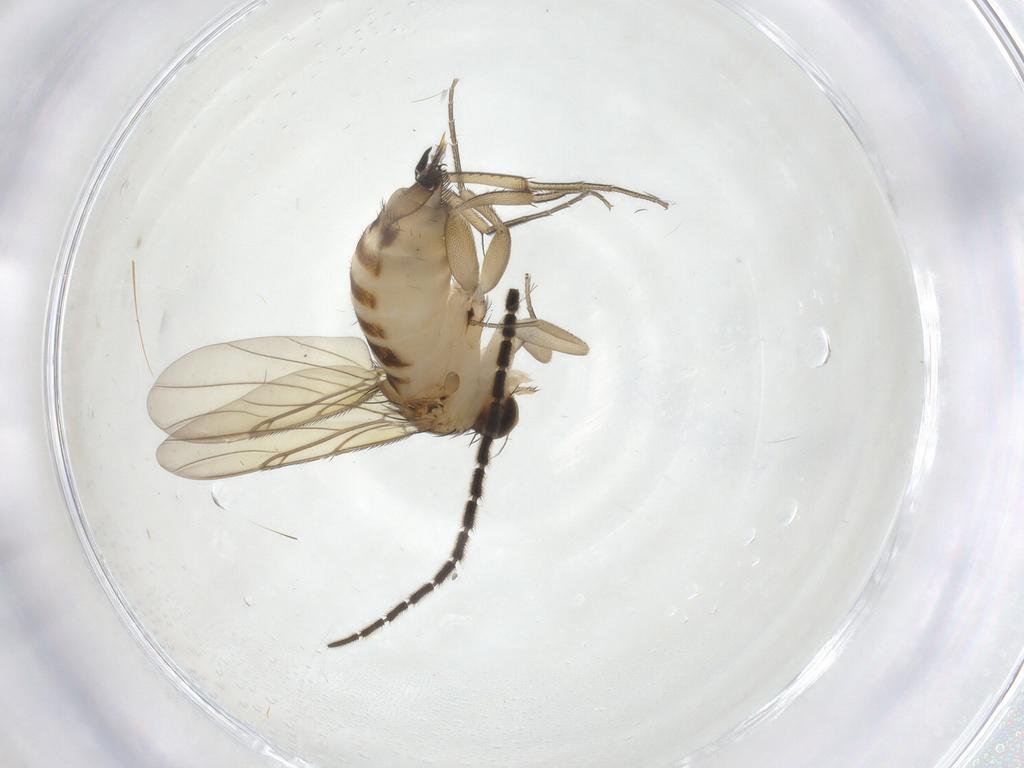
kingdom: Animalia
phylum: Arthropoda
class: Insecta
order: Diptera
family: Phoridae
